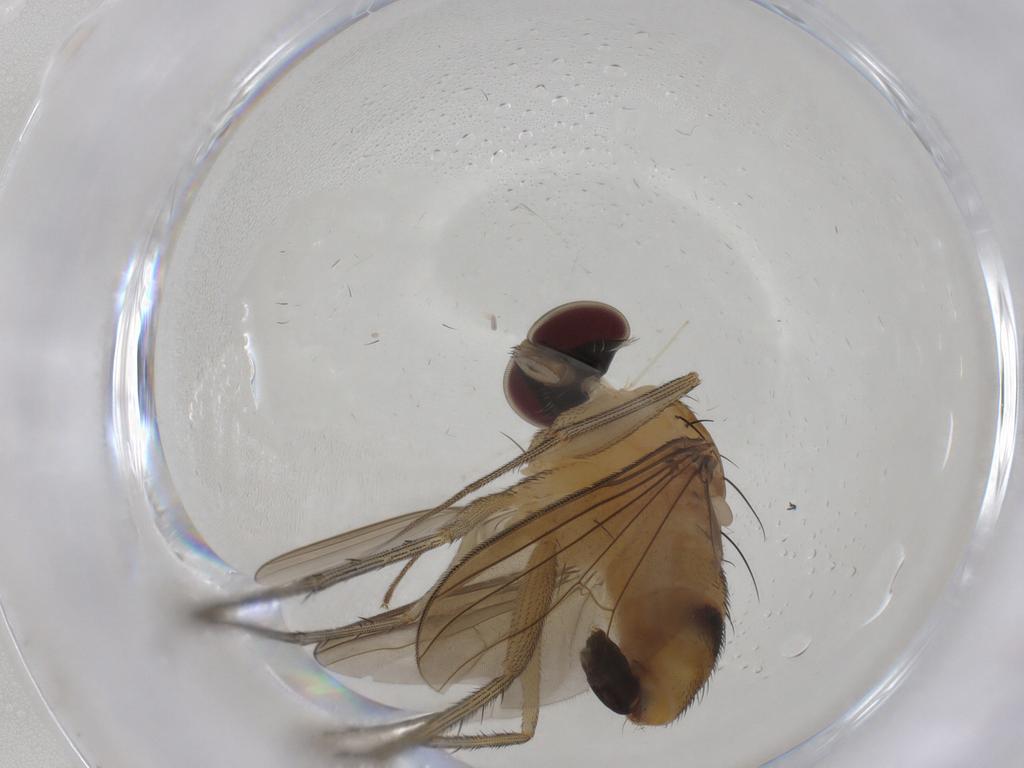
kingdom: Animalia
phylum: Arthropoda
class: Insecta
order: Diptera
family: Dolichopodidae
